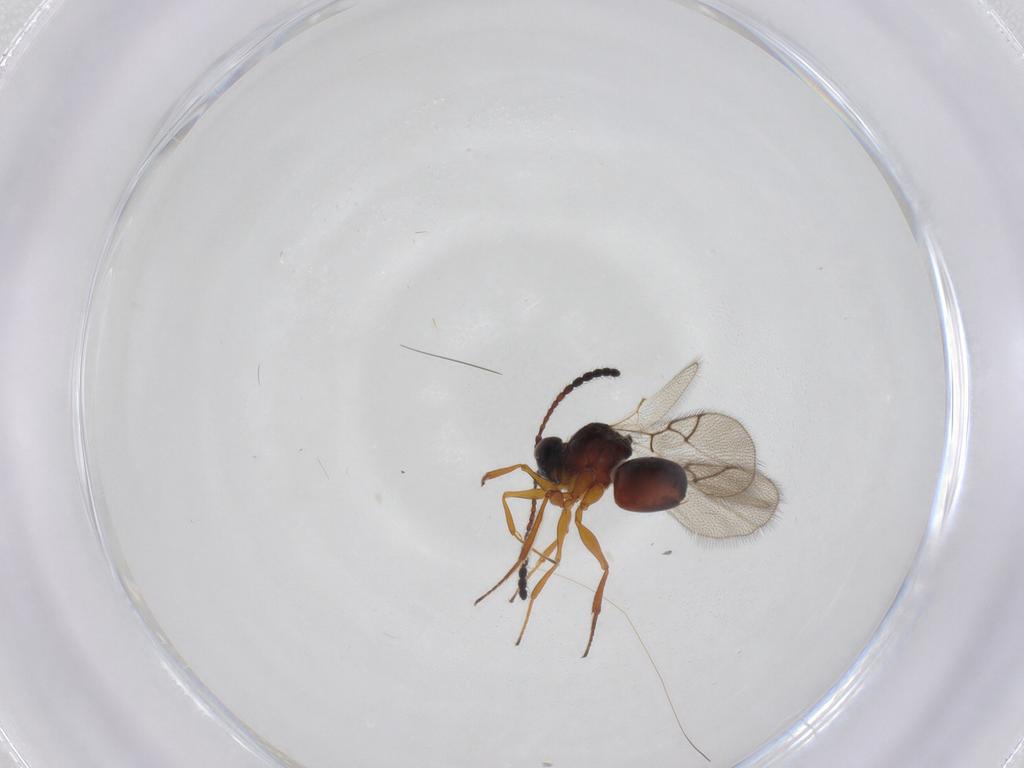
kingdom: Animalia
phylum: Arthropoda
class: Insecta
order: Hymenoptera
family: Figitidae
